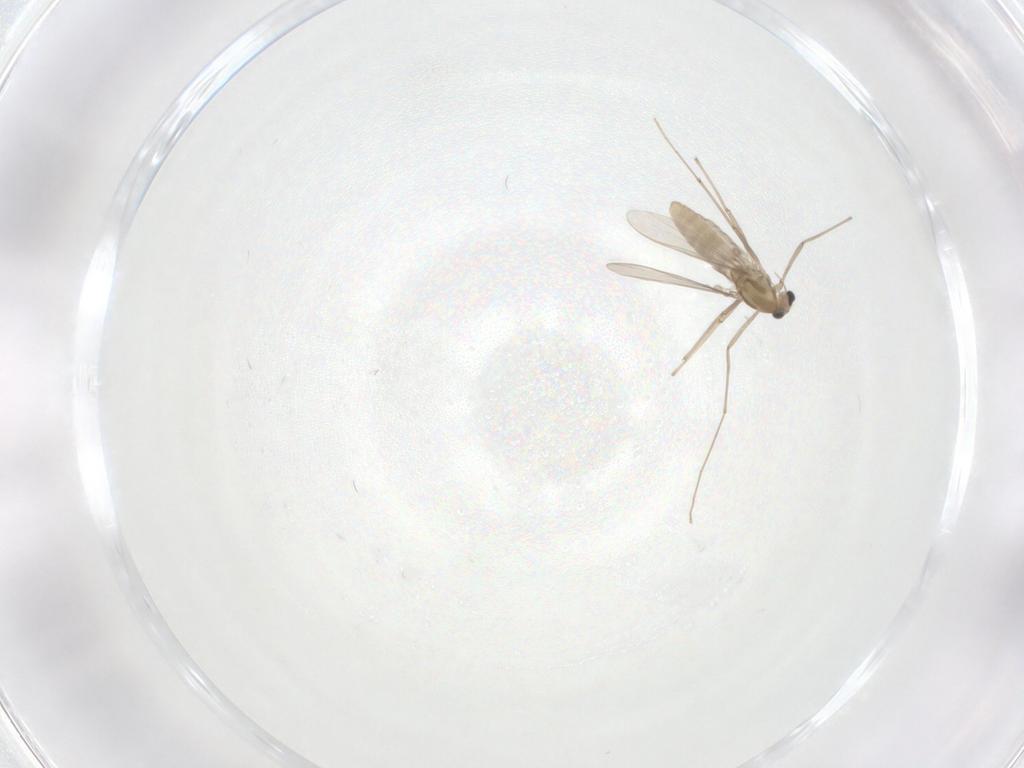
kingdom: Animalia
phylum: Arthropoda
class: Insecta
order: Diptera
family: Chironomidae
